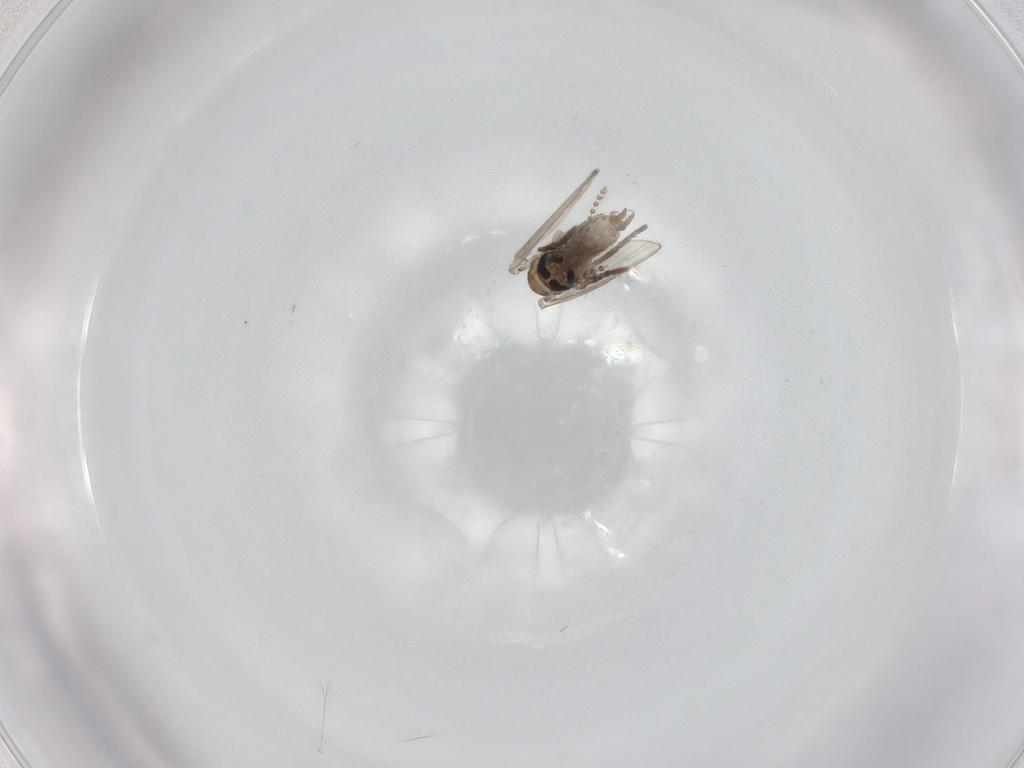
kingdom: Animalia
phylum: Arthropoda
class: Insecta
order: Diptera
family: Psychodidae
